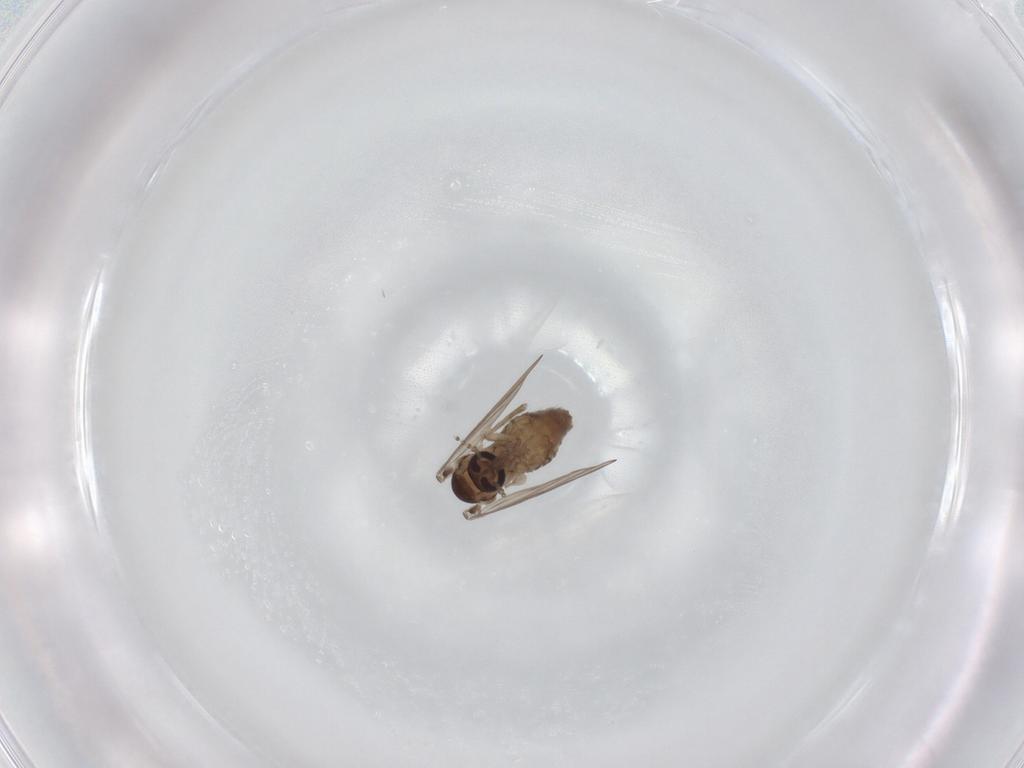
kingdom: Animalia
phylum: Arthropoda
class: Insecta
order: Diptera
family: Psychodidae
